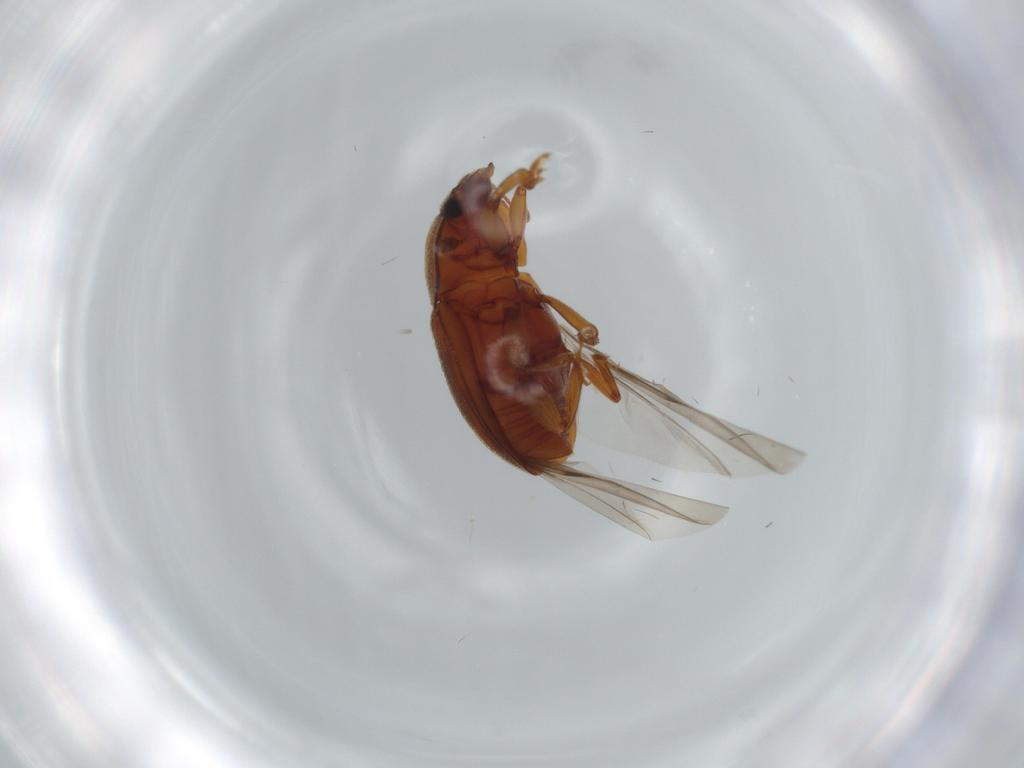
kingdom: Animalia
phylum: Arthropoda
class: Insecta
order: Coleoptera
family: Nitidulidae
